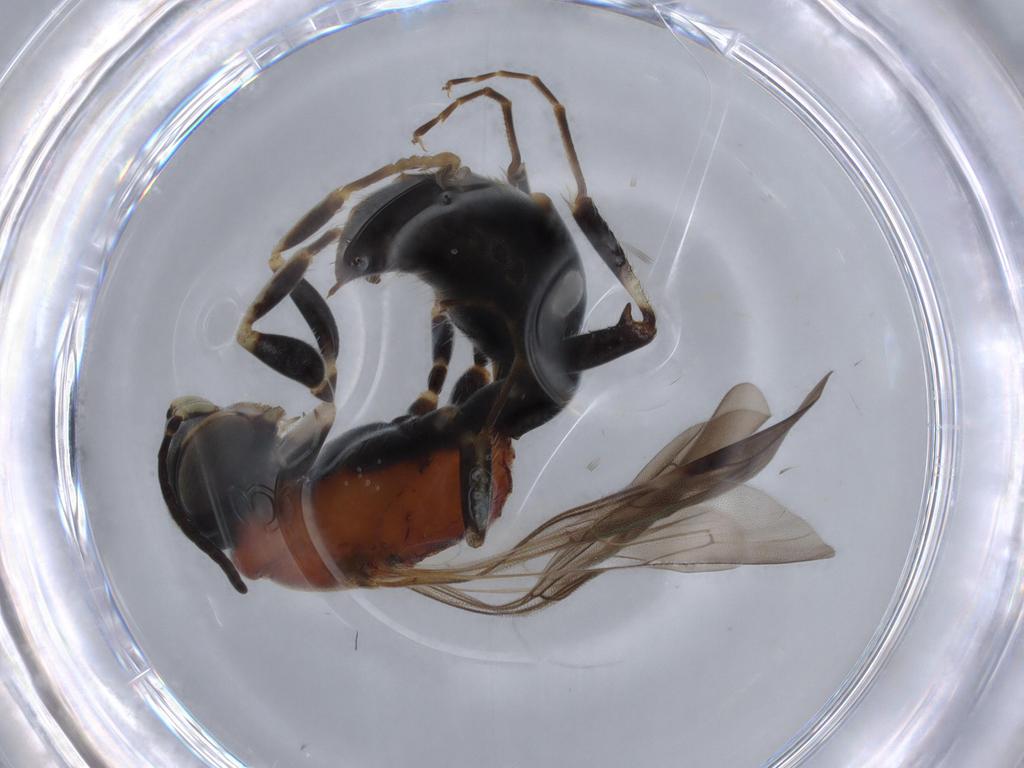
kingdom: Animalia
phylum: Arthropoda
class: Insecta
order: Hymenoptera
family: Bembicidae
